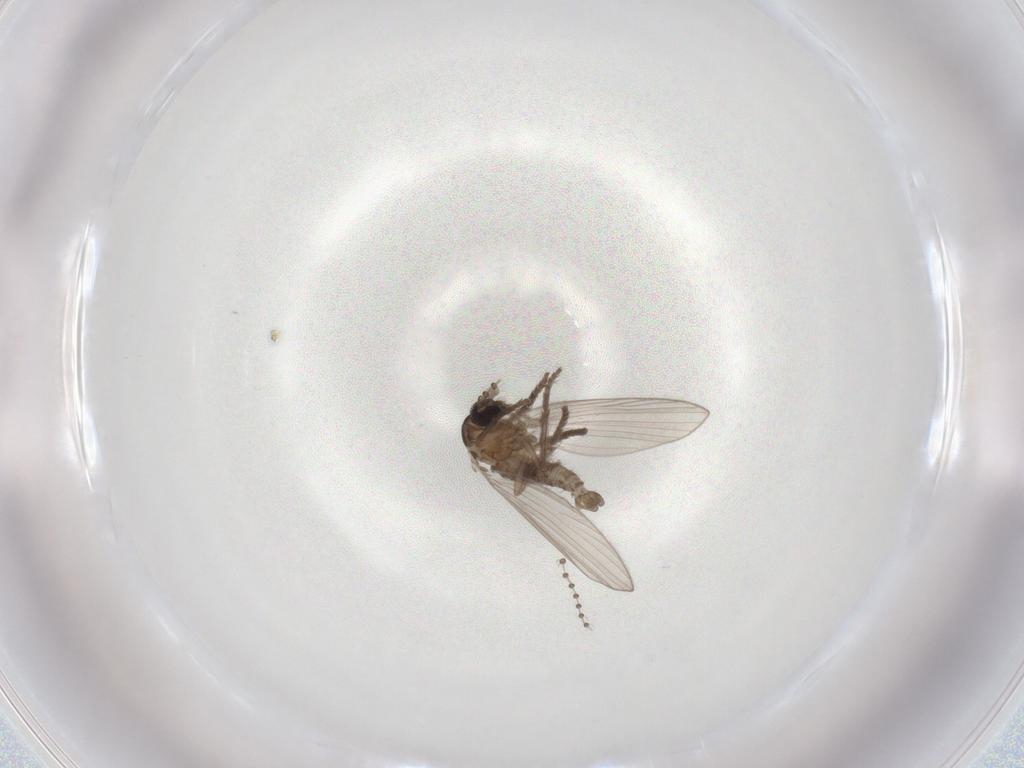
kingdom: Animalia
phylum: Arthropoda
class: Insecta
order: Diptera
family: Psychodidae
